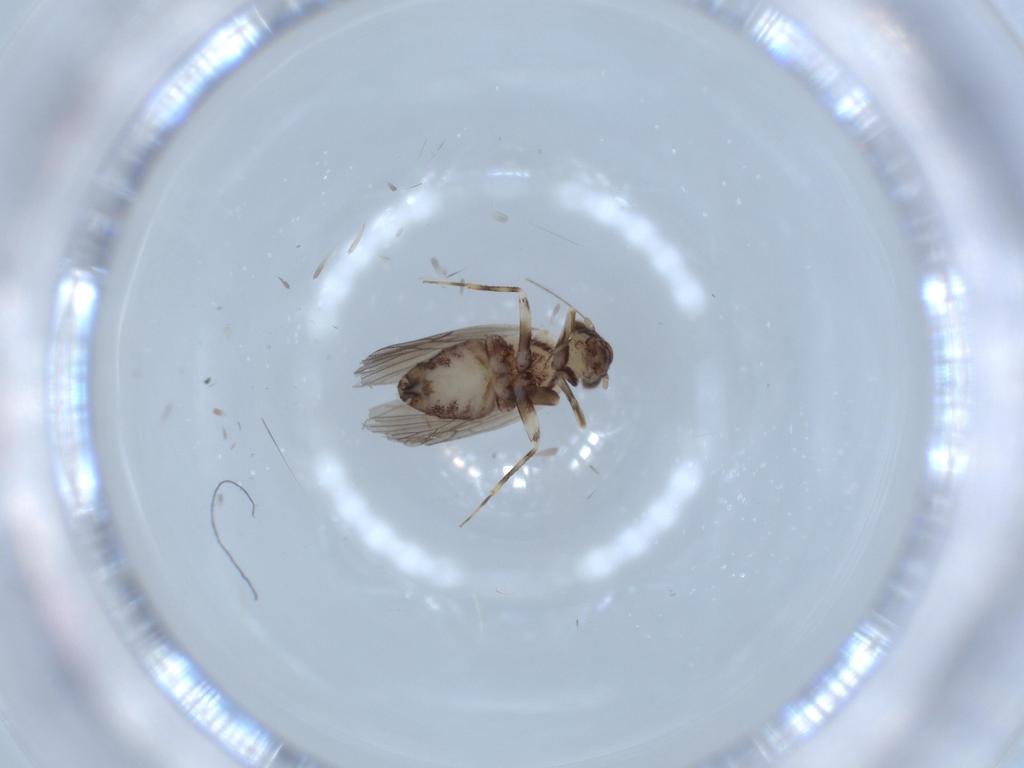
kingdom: Animalia
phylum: Arthropoda
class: Insecta
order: Psocodea
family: Lepidopsocidae
